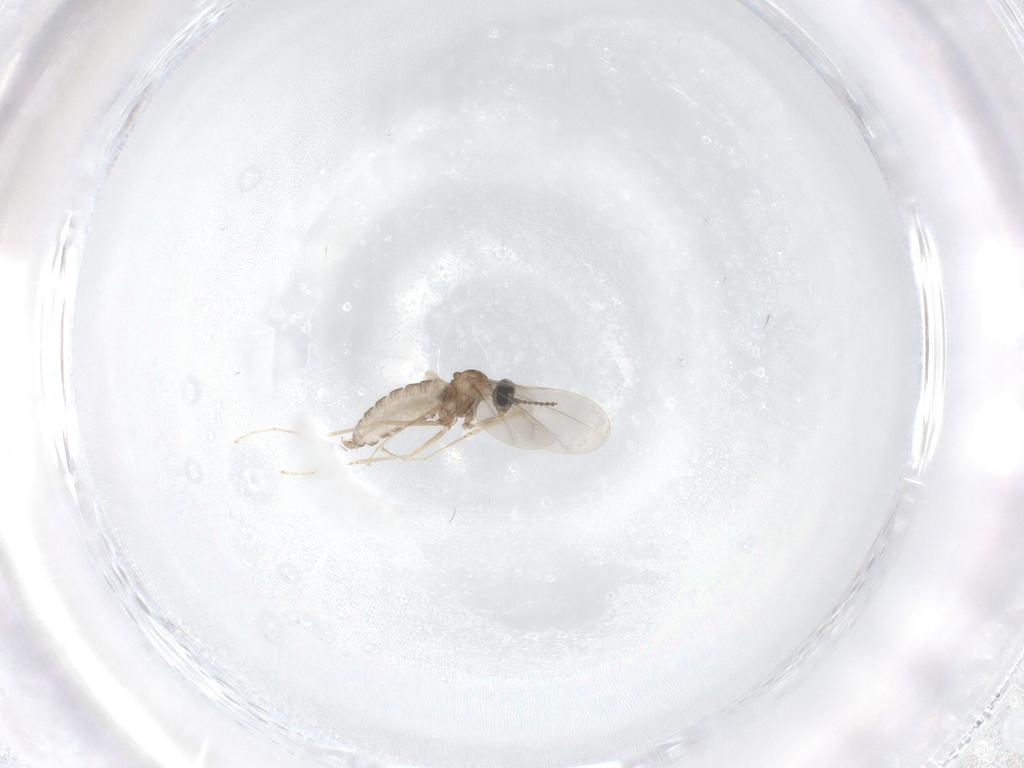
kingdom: Animalia
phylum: Arthropoda
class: Insecta
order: Diptera
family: Cecidomyiidae
